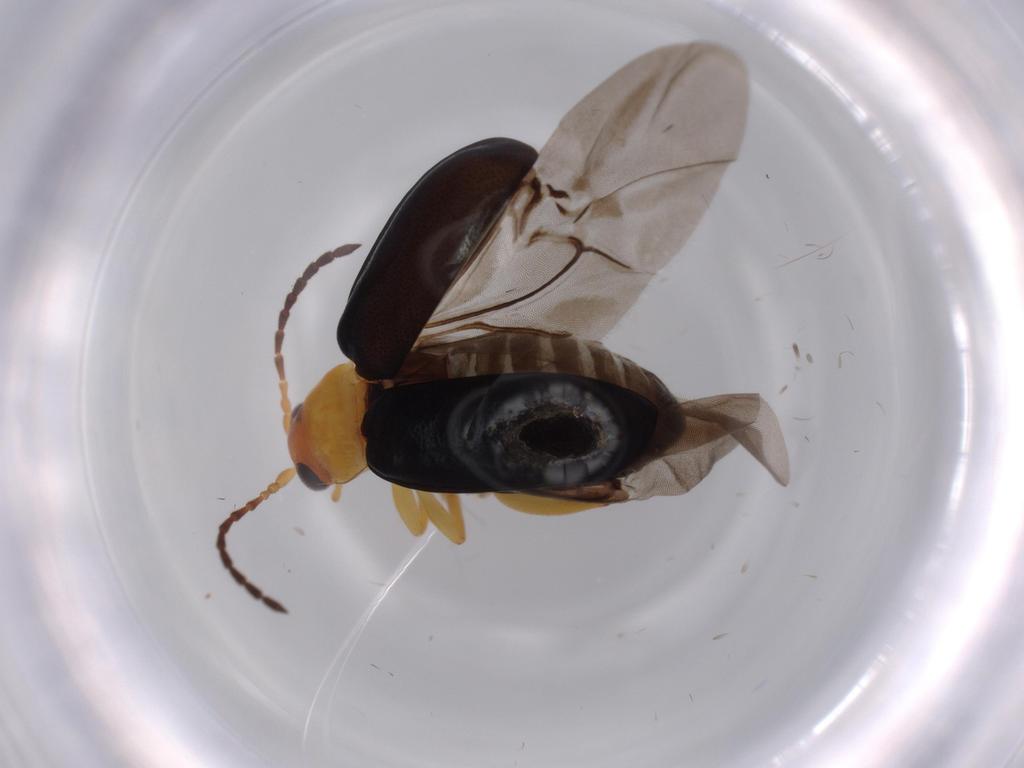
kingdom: Animalia
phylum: Arthropoda
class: Insecta
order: Coleoptera
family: Chrysomelidae
